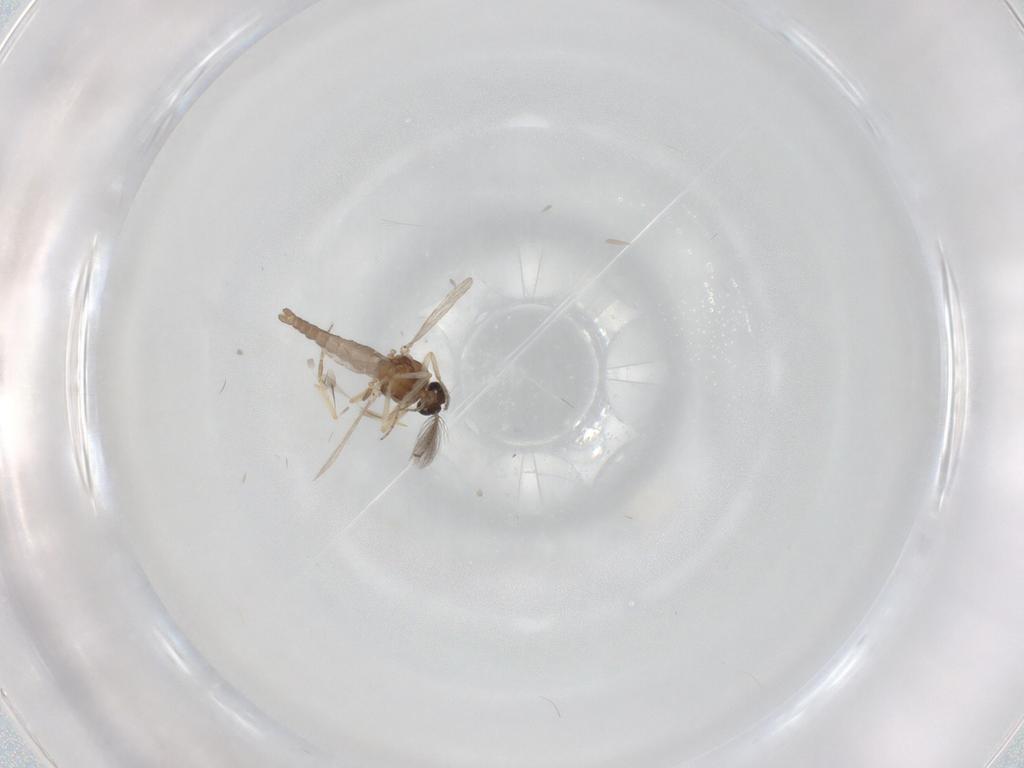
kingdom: Animalia
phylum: Arthropoda
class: Insecta
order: Diptera
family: Ceratopogonidae
